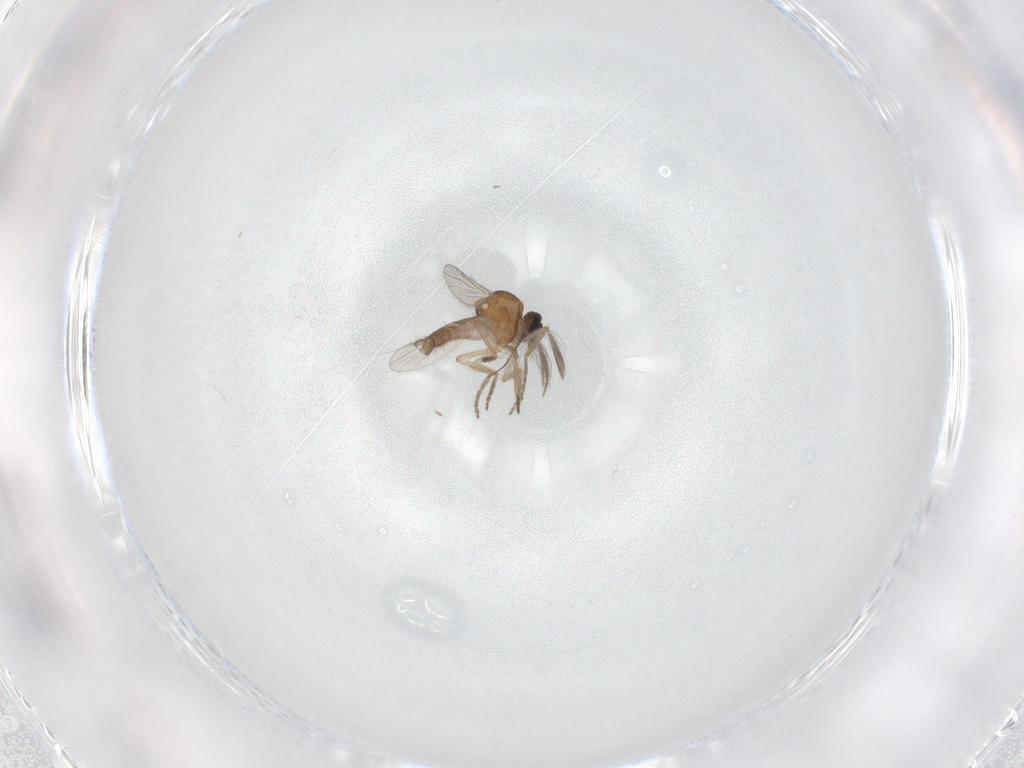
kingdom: Animalia
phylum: Arthropoda
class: Insecta
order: Diptera
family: Chironomidae
